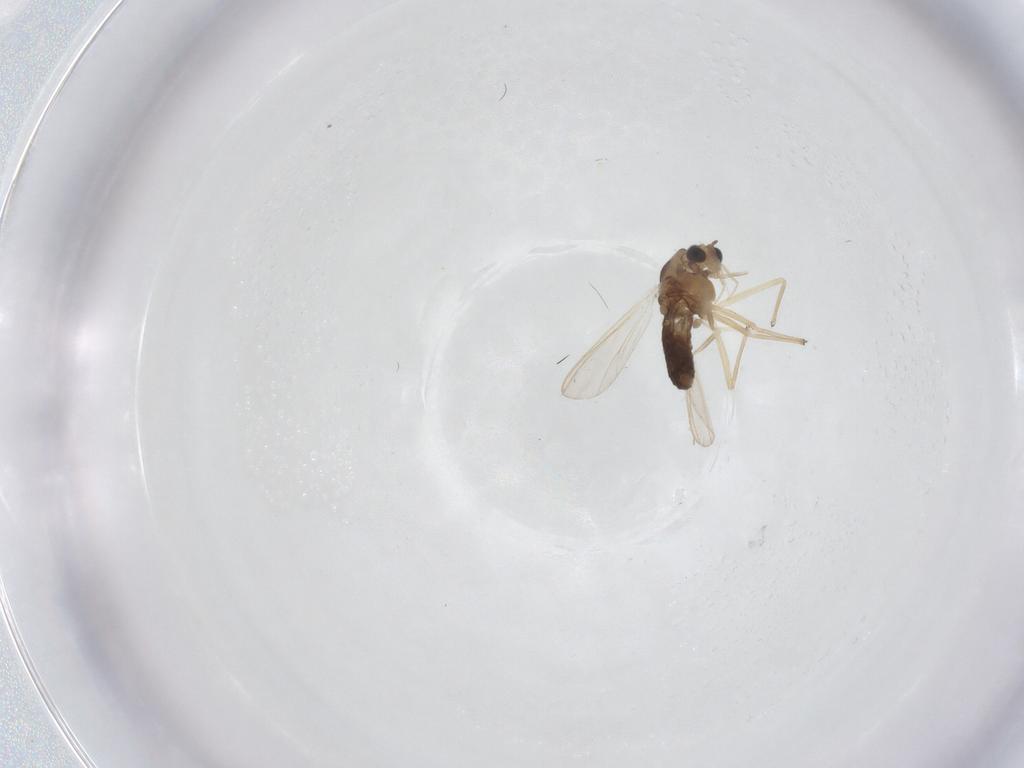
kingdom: Animalia
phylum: Arthropoda
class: Insecta
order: Diptera
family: Chironomidae
